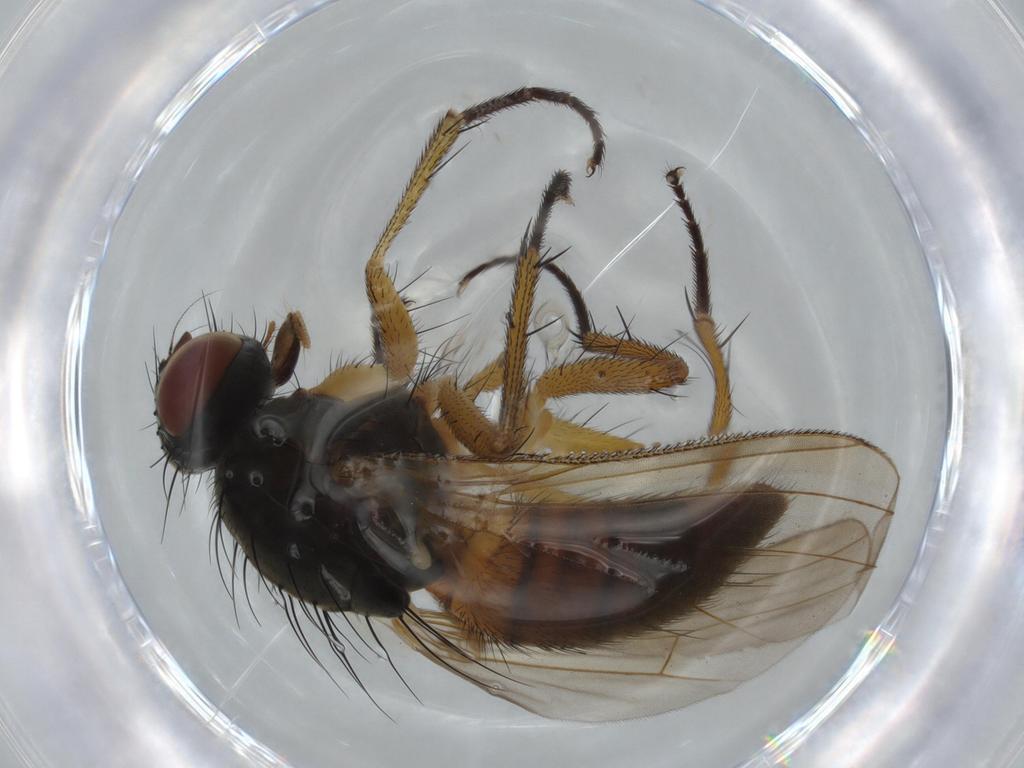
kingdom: Animalia
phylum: Arthropoda
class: Insecta
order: Diptera
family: Muscidae
